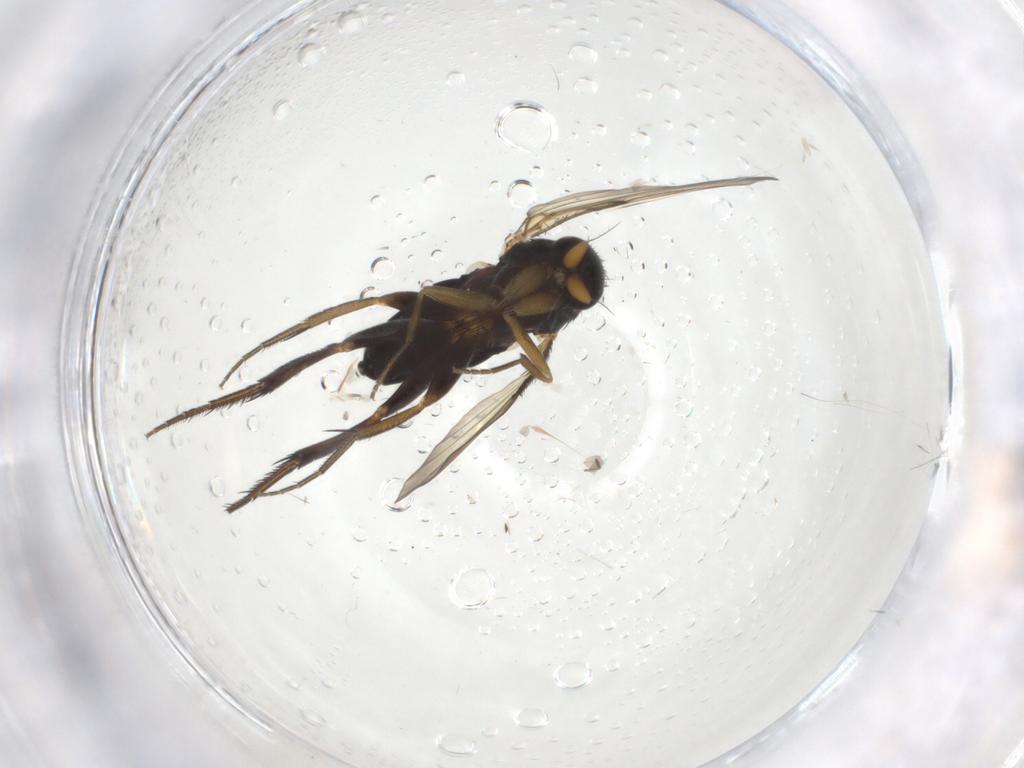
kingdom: Animalia
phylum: Arthropoda
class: Insecta
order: Diptera
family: Phoridae
